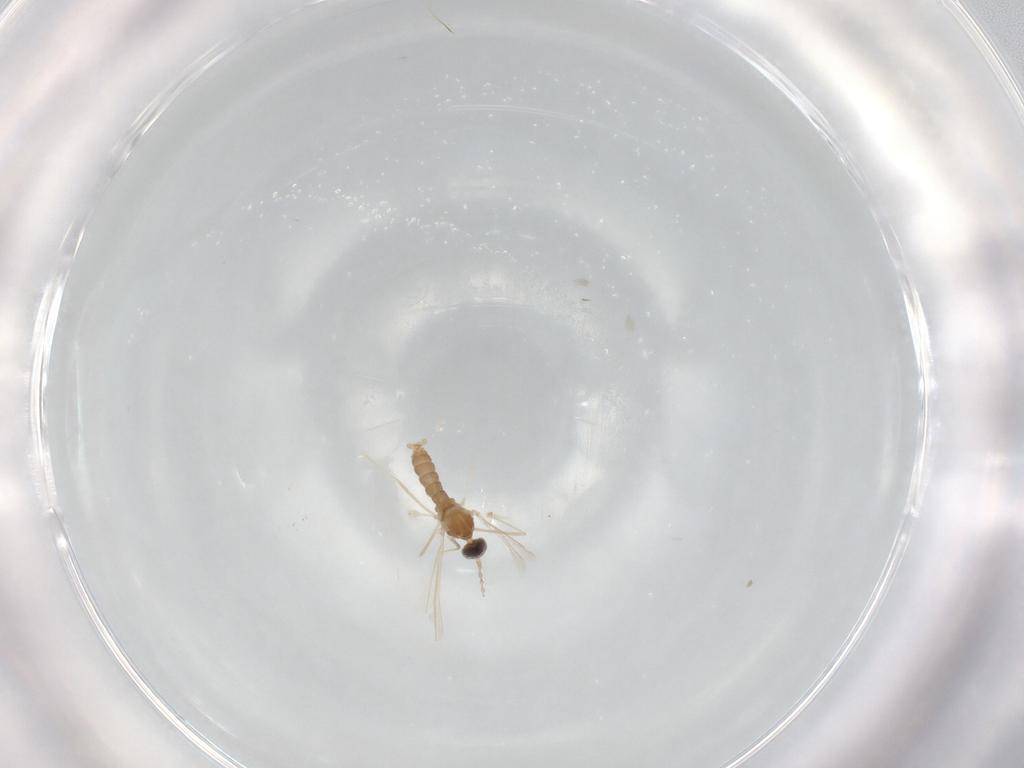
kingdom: Animalia
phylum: Arthropoda
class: Insecta
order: Diptera
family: Cecidomyiidae
